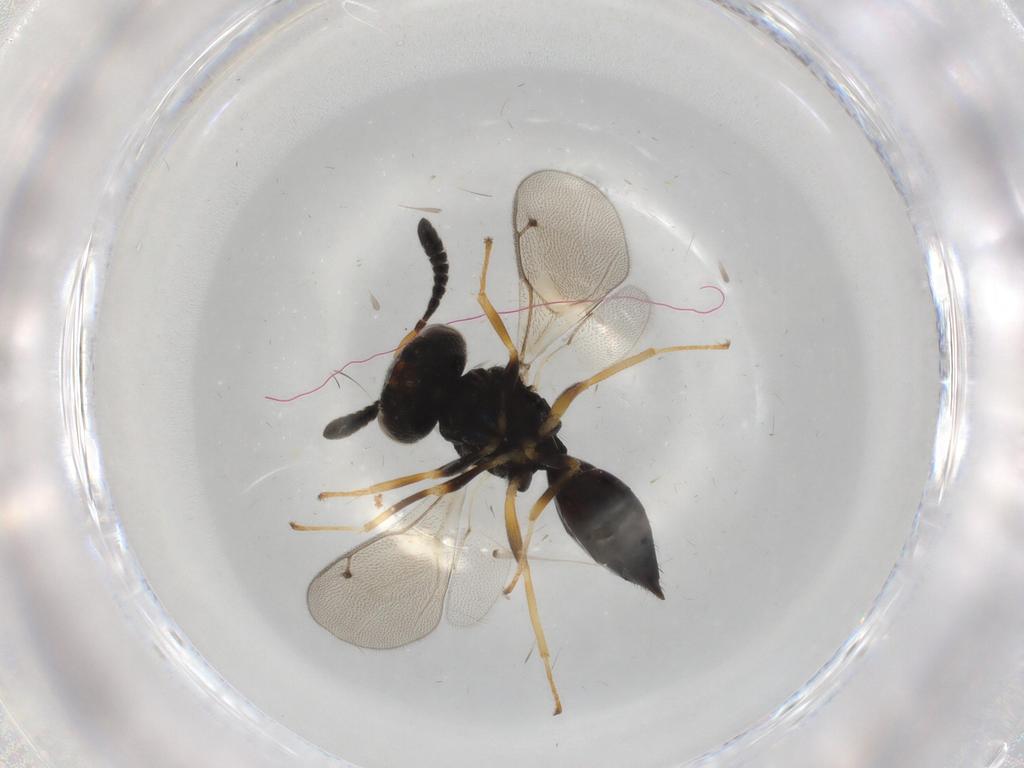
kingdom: Animalia
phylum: Arthropoda
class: Insecta
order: Hymenoptera
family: Pteromalidae
